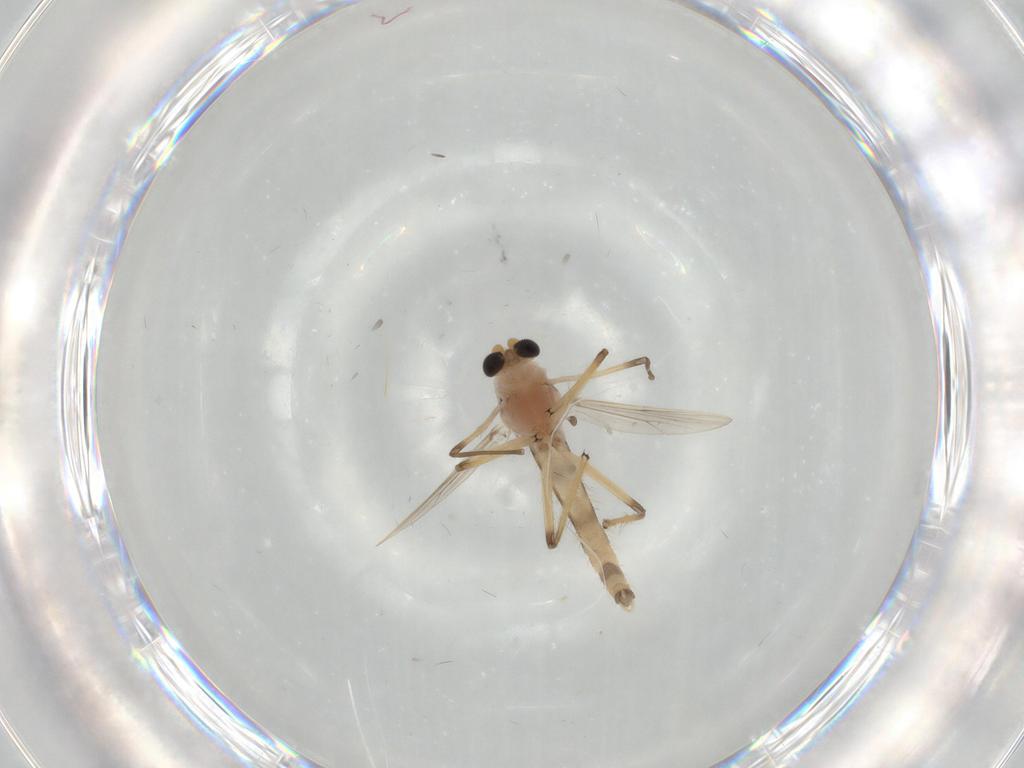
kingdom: Animalia
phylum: Arthropoda
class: Insecta
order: Diptera
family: Chironomidae
